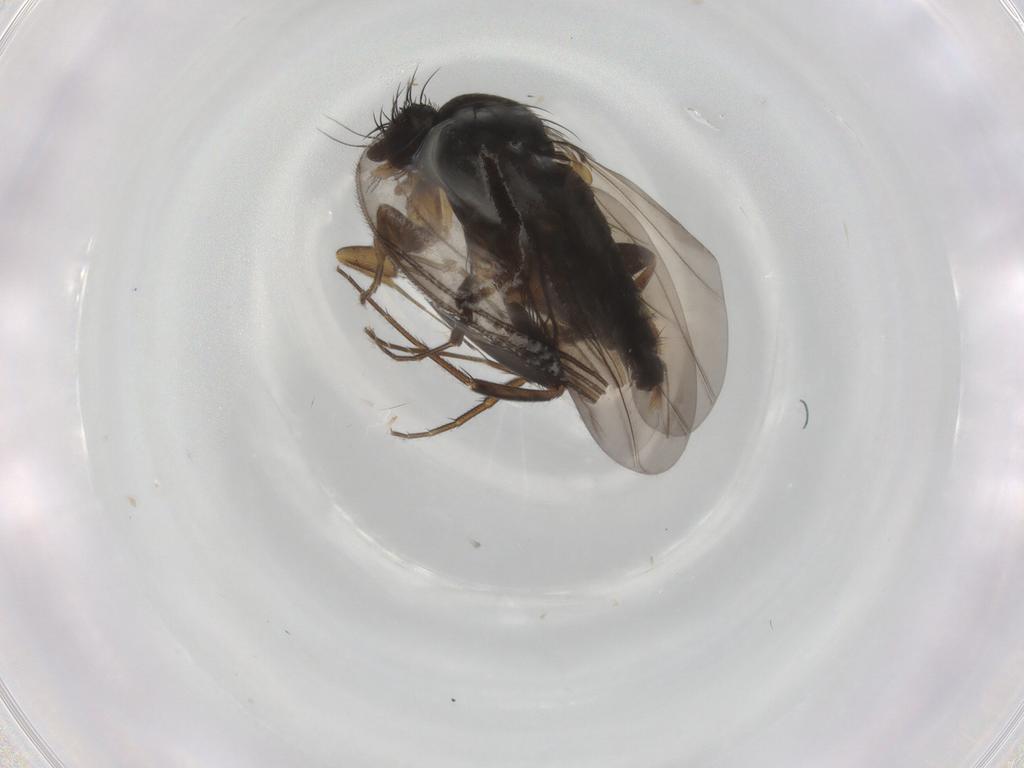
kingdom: Animalia
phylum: Arthropoda
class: Insecta
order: Diptera
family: Phoridae
